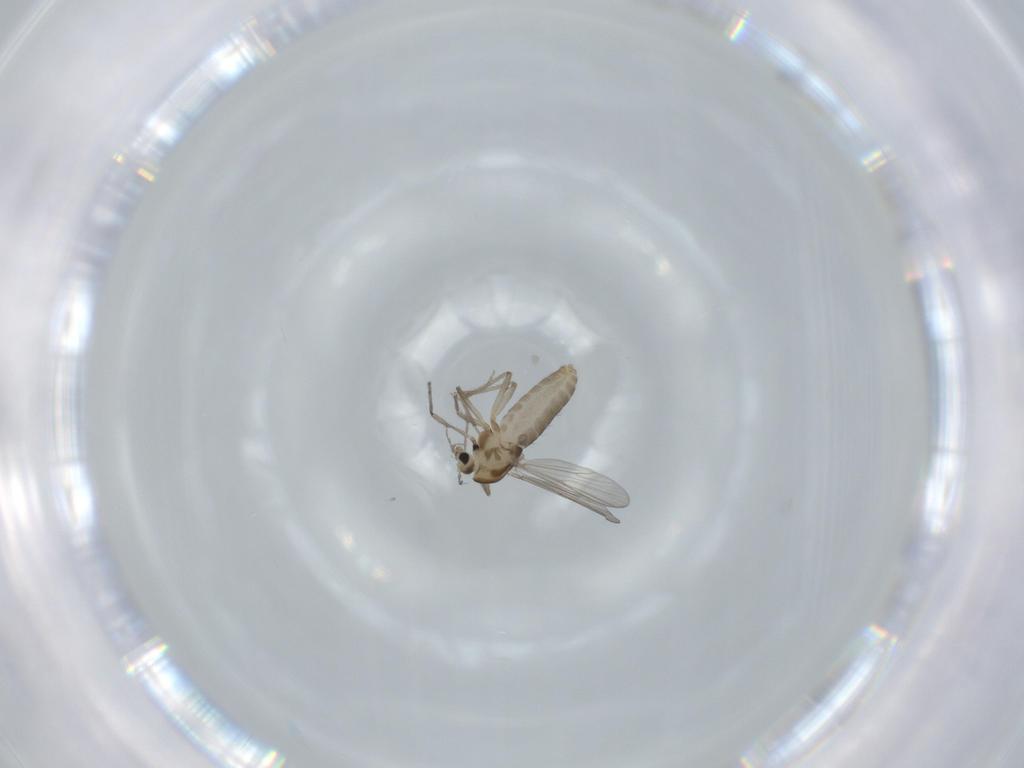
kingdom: Animalia
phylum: Arthropoda
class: Insecta
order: Diptera
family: Chironomidae
